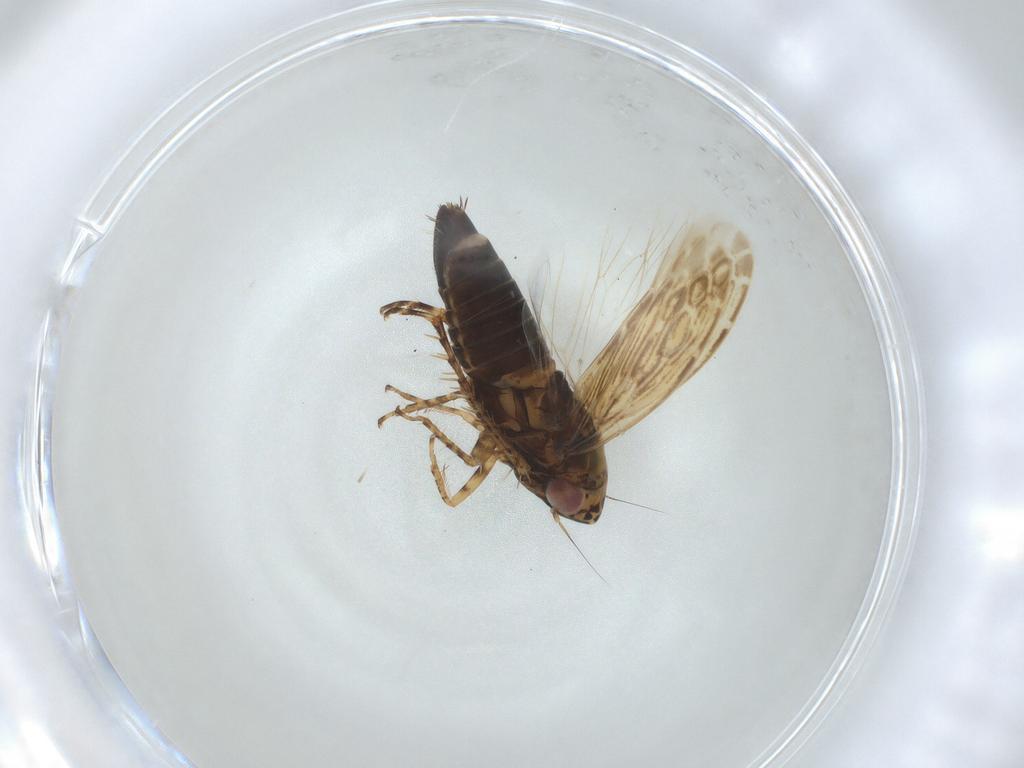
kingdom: Animalia
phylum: Arthropoda
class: Insecta
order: Hemiptera
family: Cicadellidae
